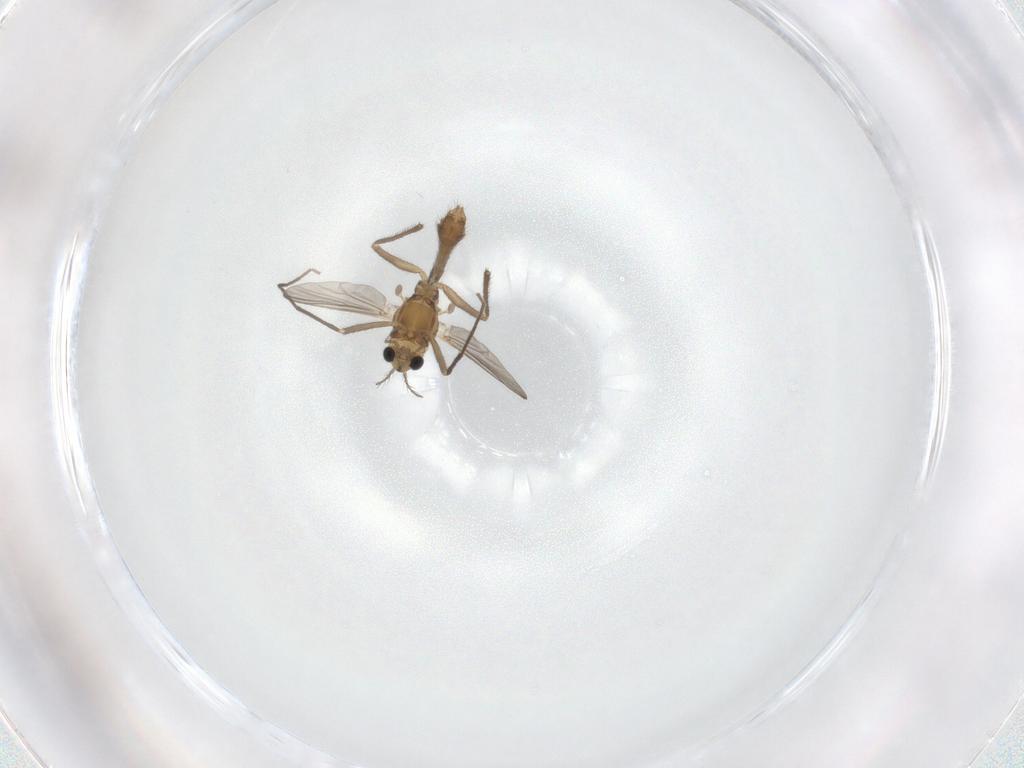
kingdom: Animalia
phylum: Arthropoda
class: Insecta
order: Diptera
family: Chironomidae
